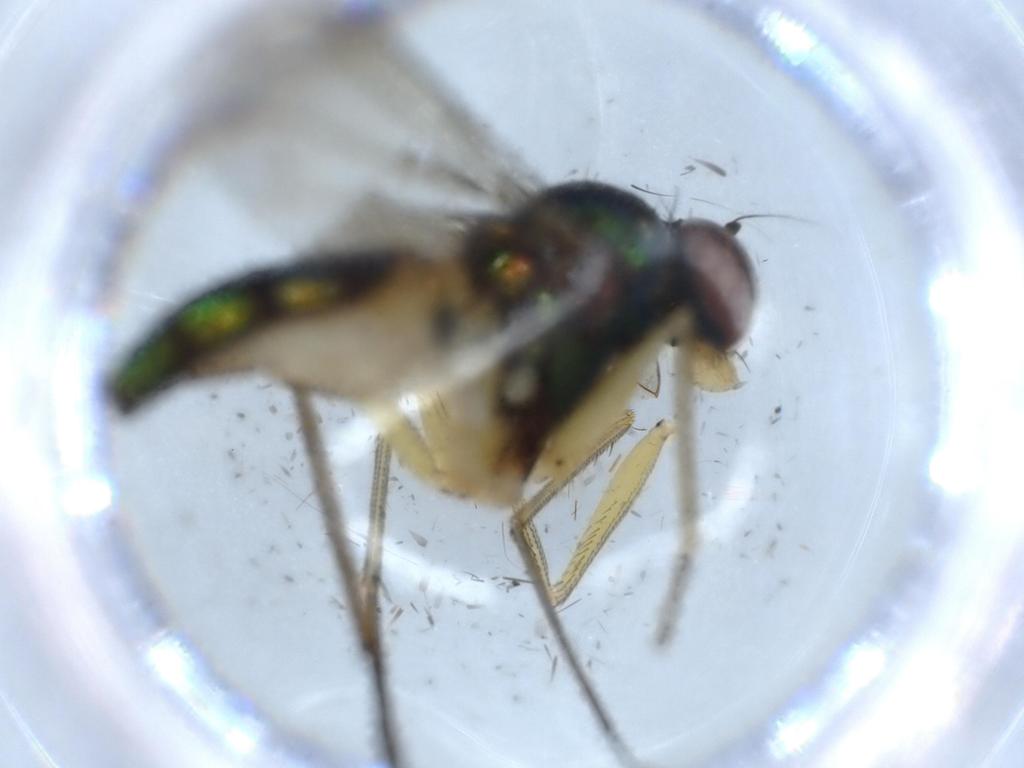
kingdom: Animalia
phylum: Arthropoda
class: Insecta
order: Diptera
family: Dolichopodidae
